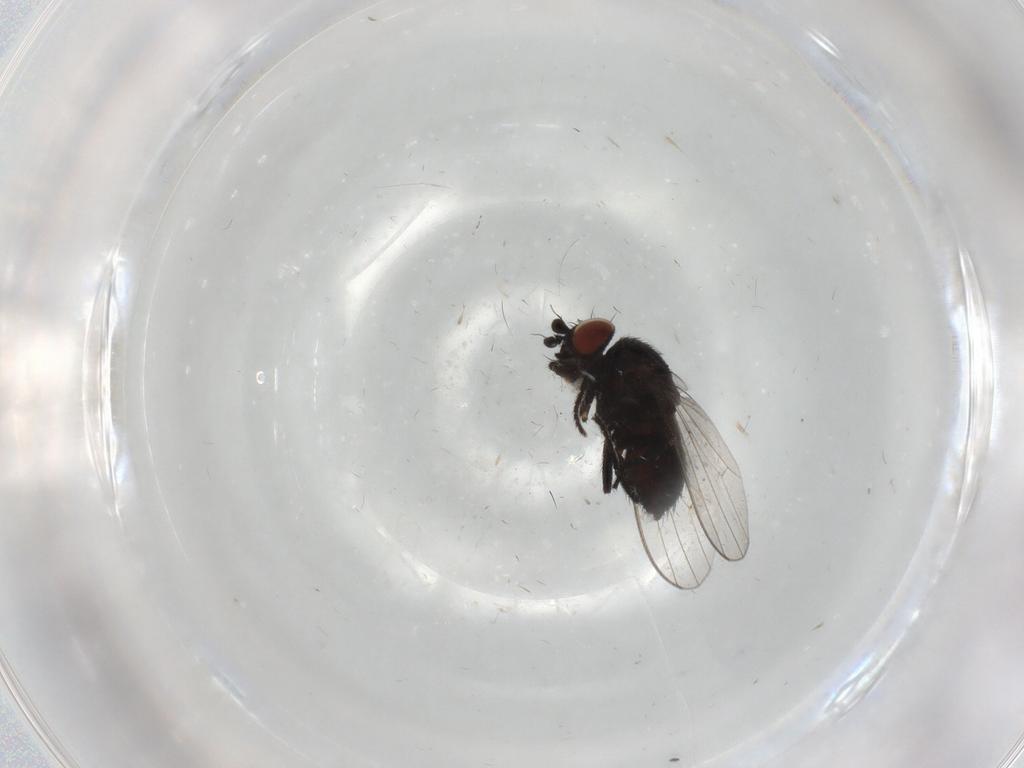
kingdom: Animalia
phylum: Arthropoda
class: Insecta
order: Diptera
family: Milichiidae
